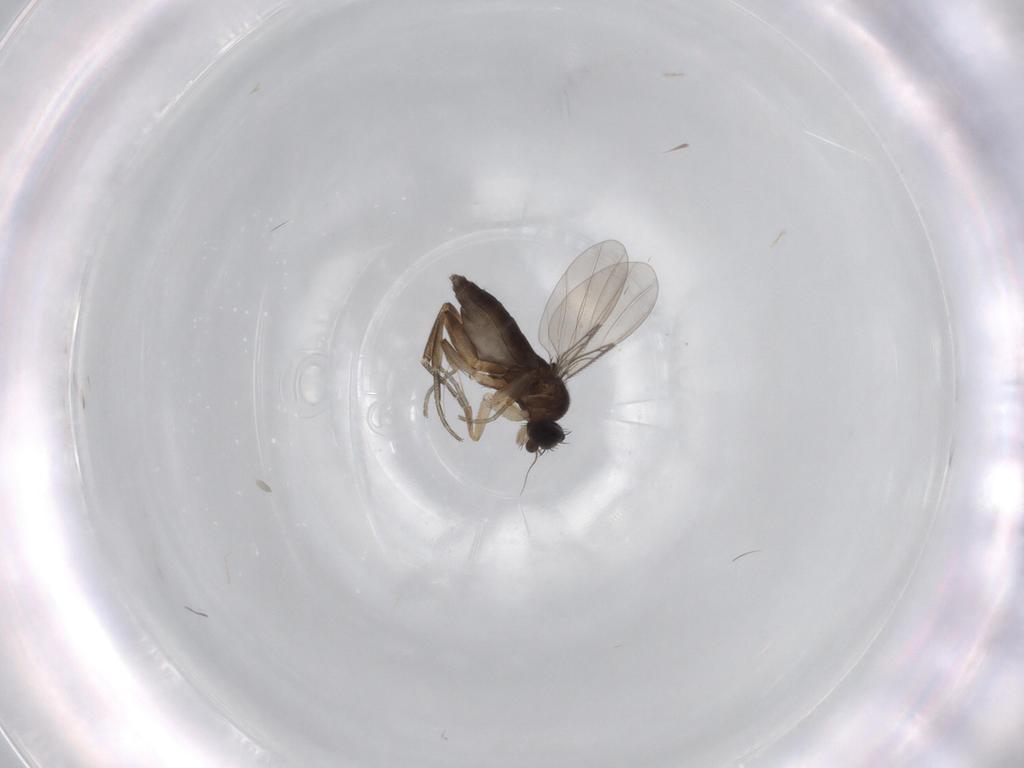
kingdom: Animalia
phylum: Arthropoda
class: Insecta
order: Diptera
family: Phoridae
